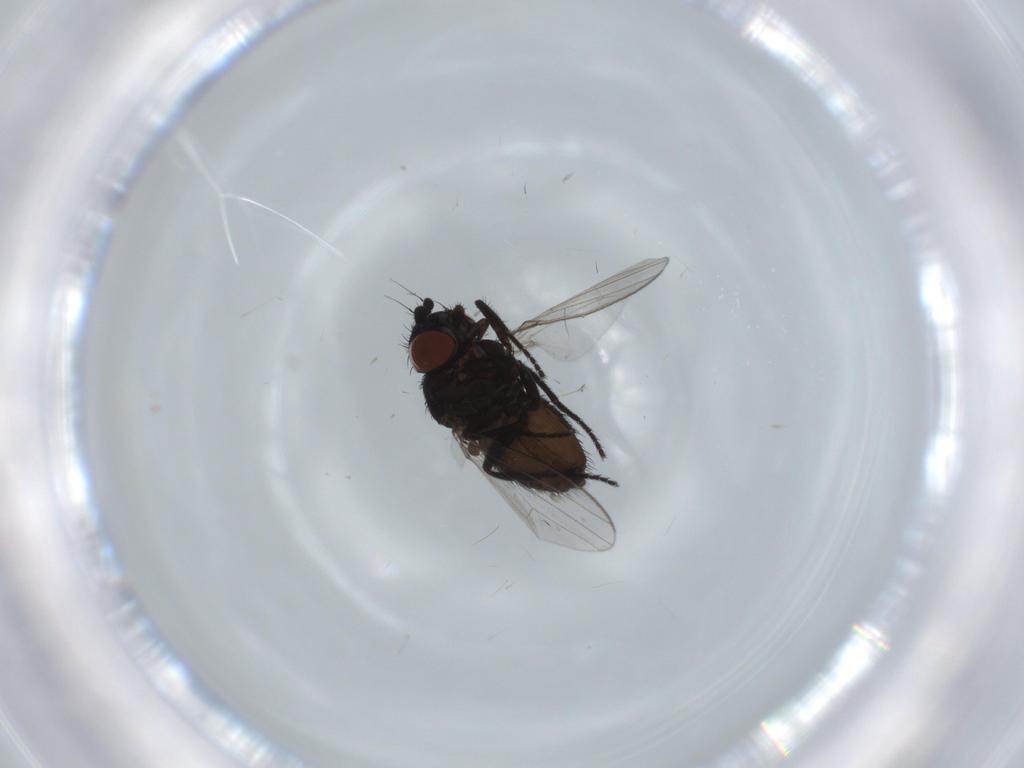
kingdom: Animalia
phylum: Arthropoda
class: Insecta
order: Diptera
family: Milichiidae
